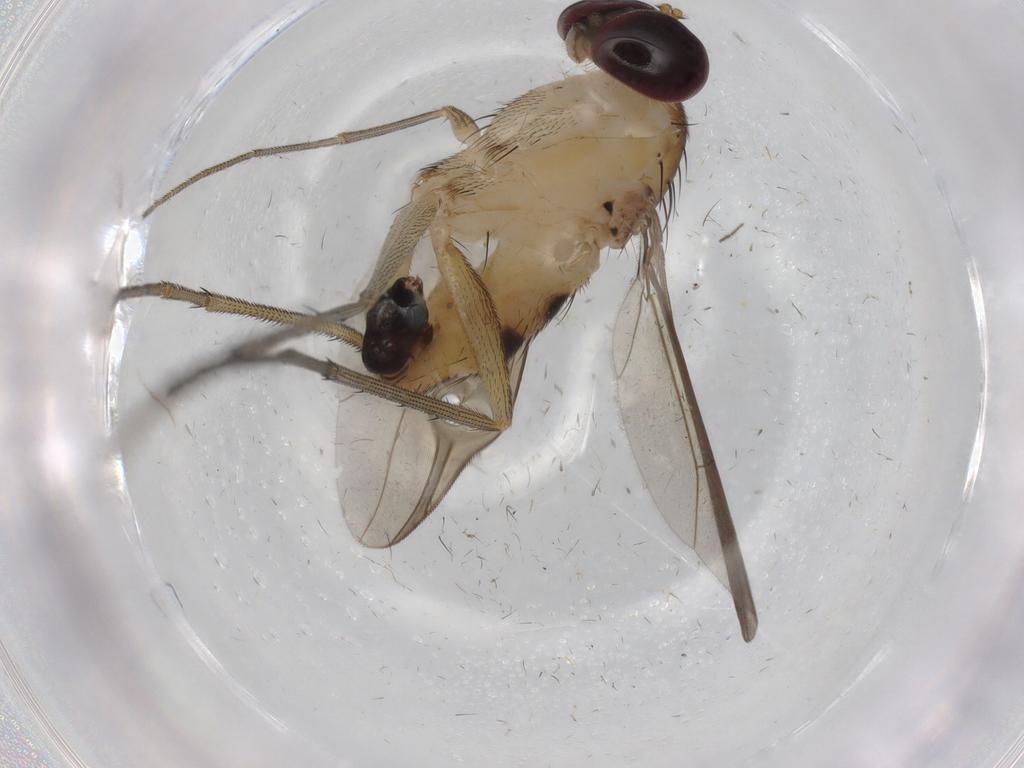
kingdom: Animalia
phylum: Arthropoda
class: Insecta
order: Diptera
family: Dolichopodidae
